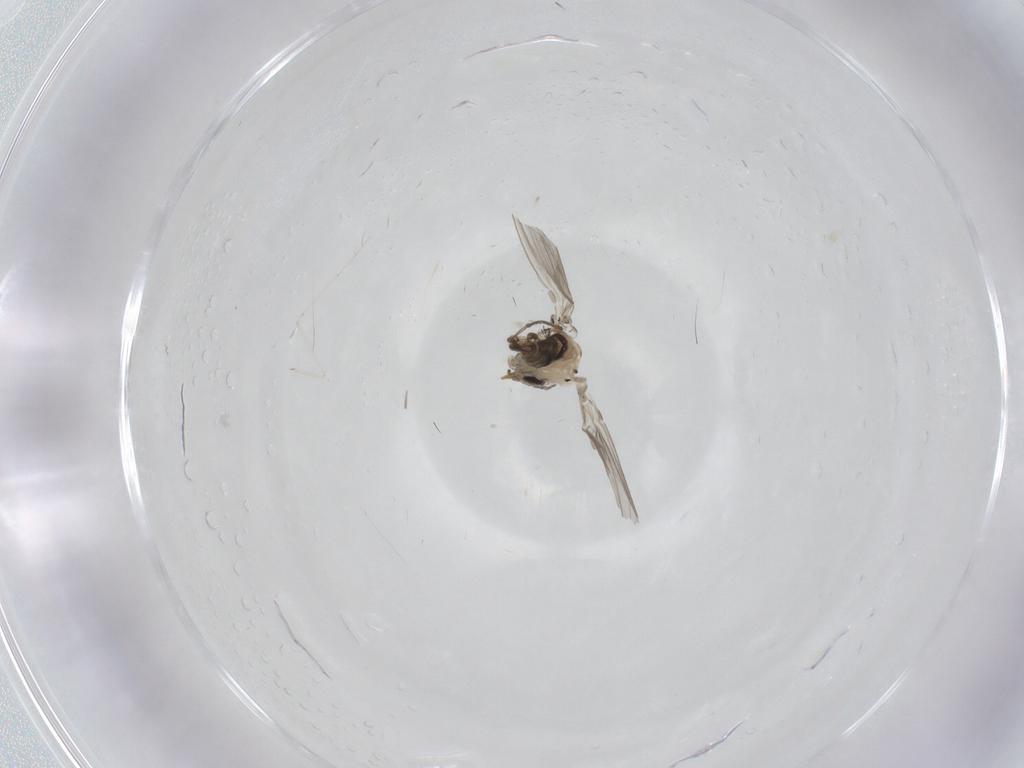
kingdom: Animalia
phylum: Arthropoda
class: Insecta
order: Diptera
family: Psychodidae
